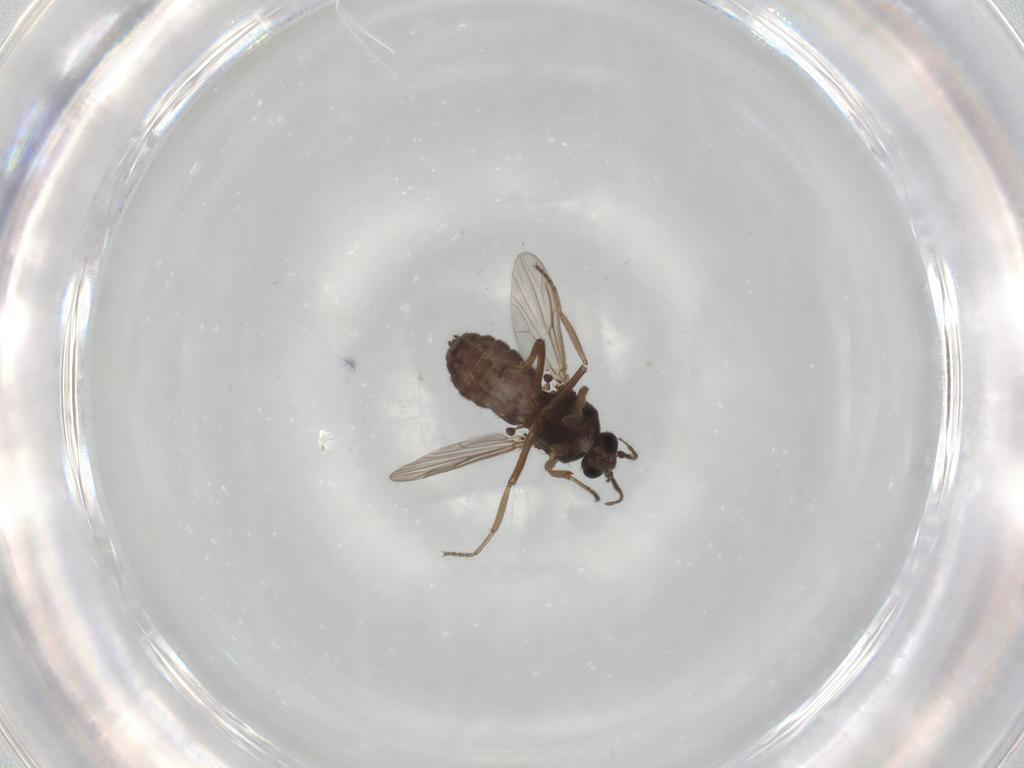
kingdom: Animalia
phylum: Arthropoda
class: Insecta
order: Diptera
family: Ceratopogonidae
